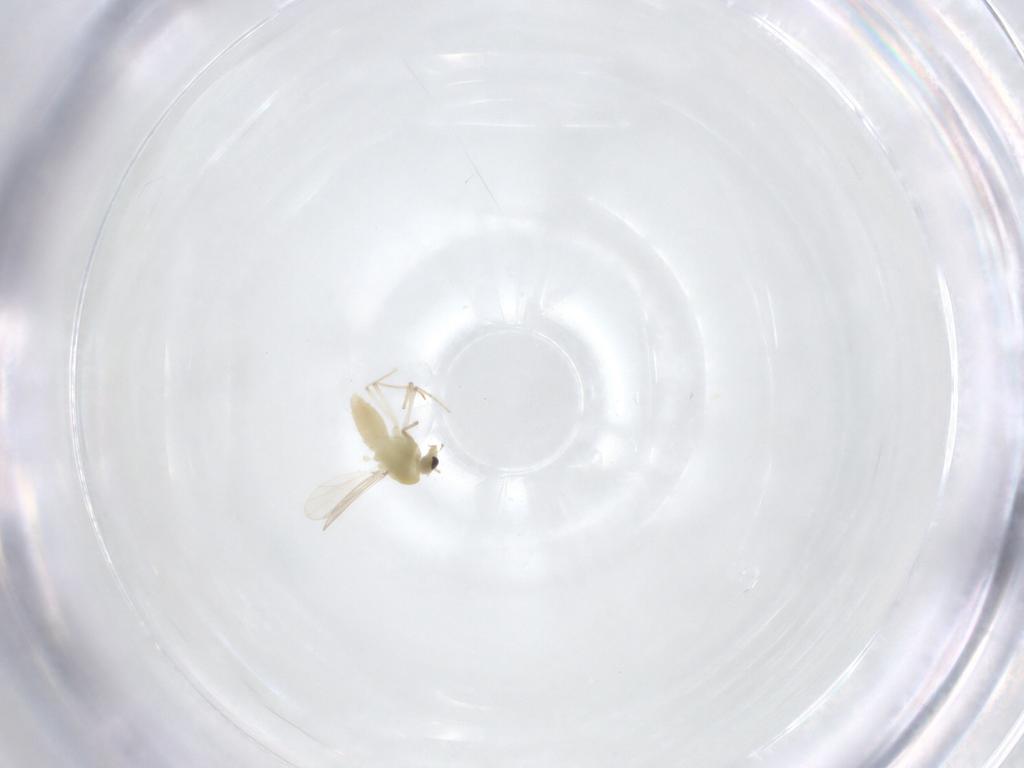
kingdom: Animalia
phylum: Arthropoda
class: Insecta
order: Diptera
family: Chironomidae
